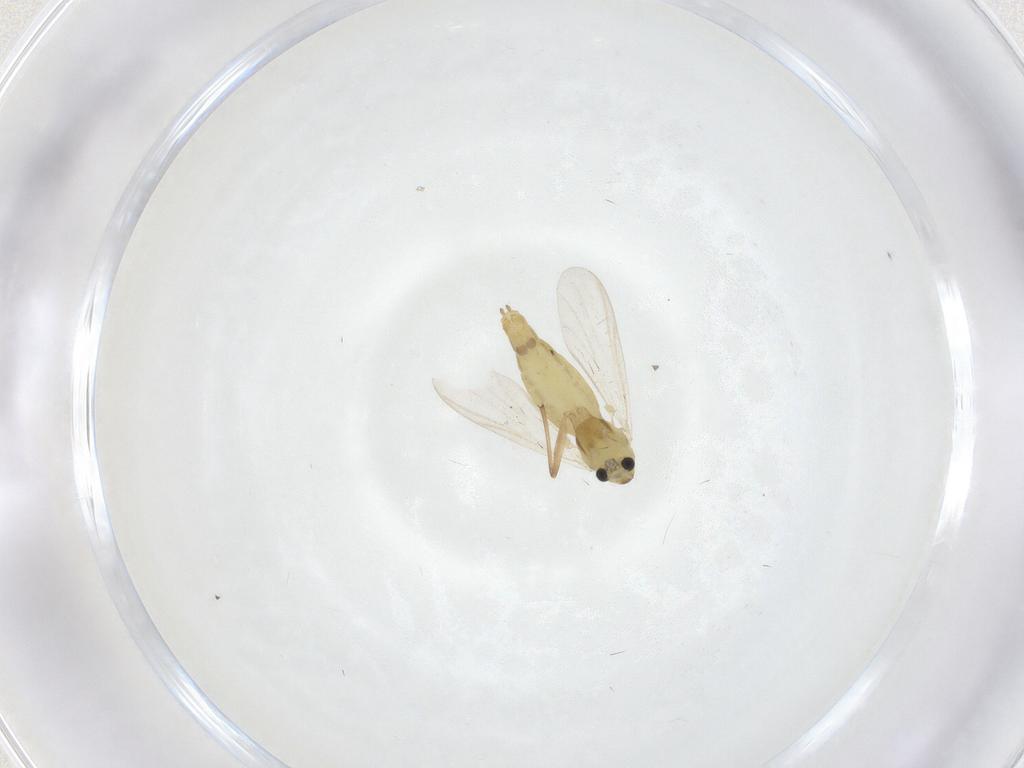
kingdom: Animalia
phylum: Arthropoda
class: Insecta
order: Diptera
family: Chironomidae
